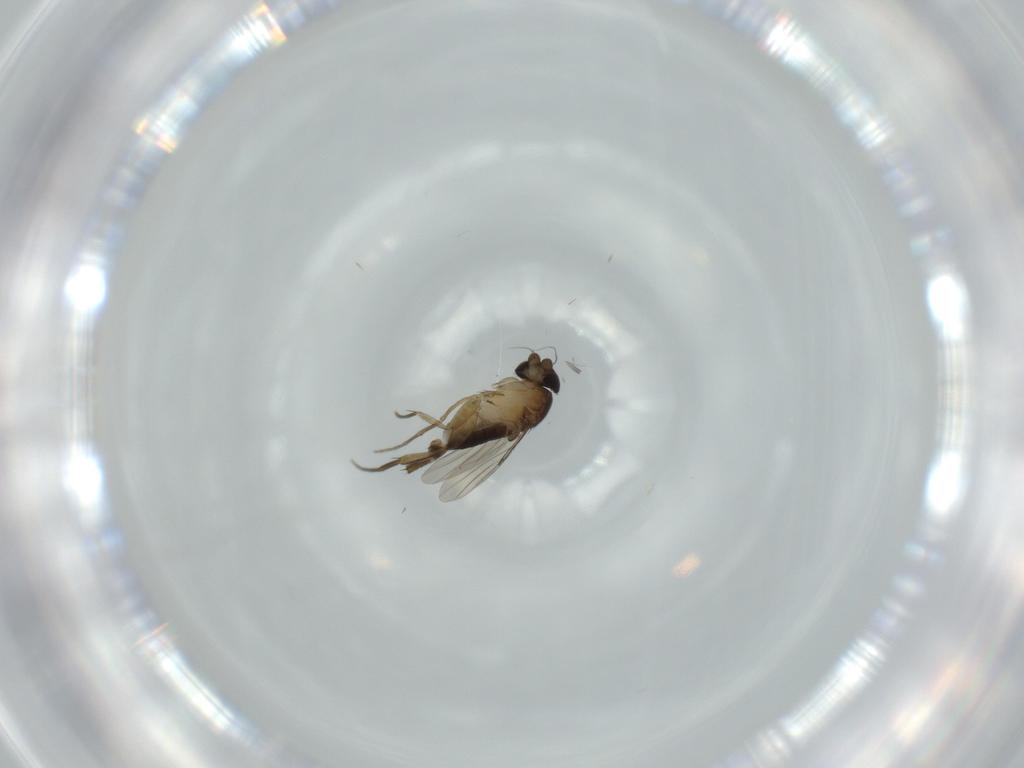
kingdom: Animalia
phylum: Arthropoda
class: Insecta
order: Diptera
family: Phoridae
